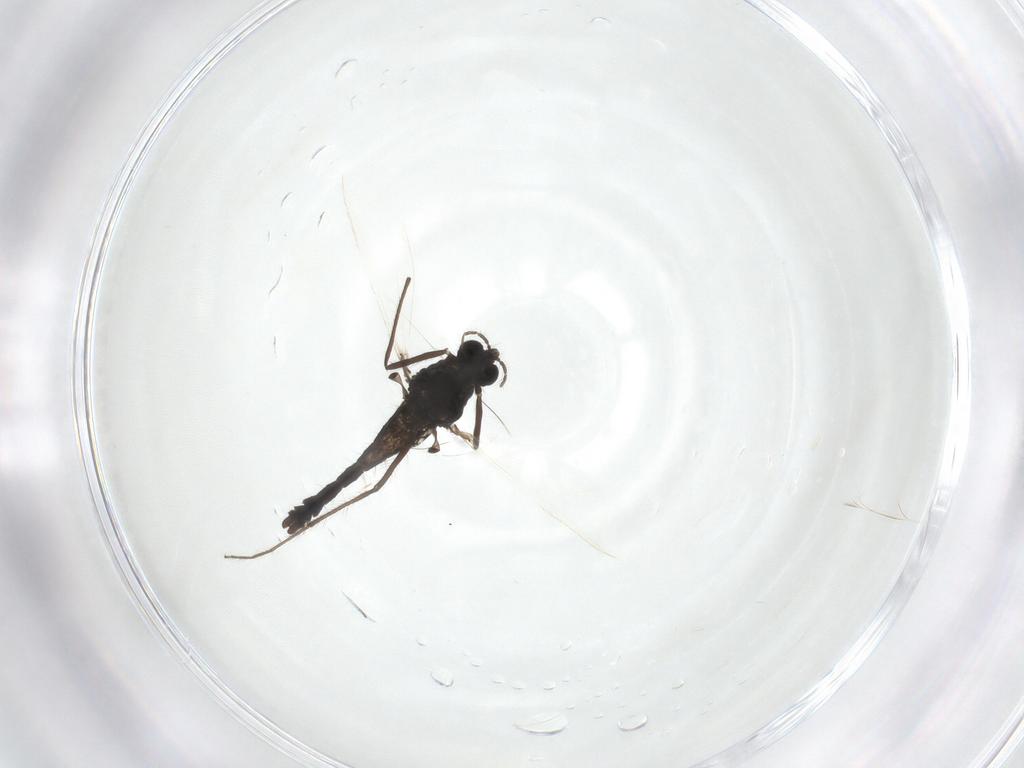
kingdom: Animalia
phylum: Arthropoda
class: Insecta
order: Diptera
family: Chironomidae
